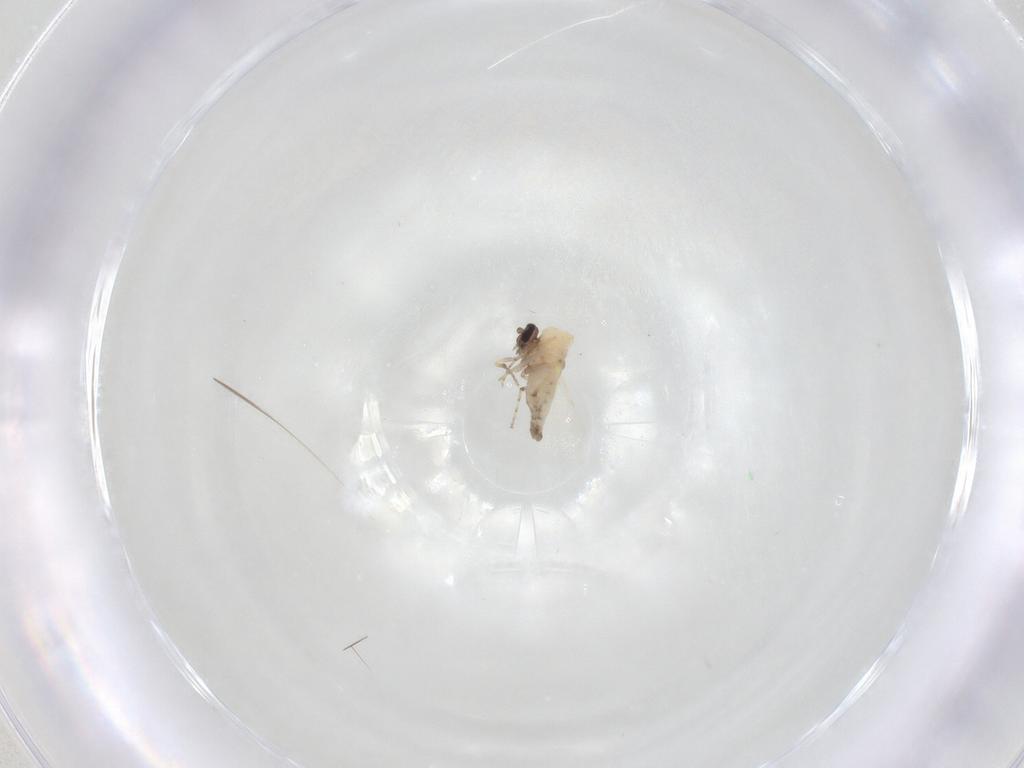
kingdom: Animalia
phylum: Arthropoda
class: Insecta
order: Diptera
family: Ceratopogonidae
